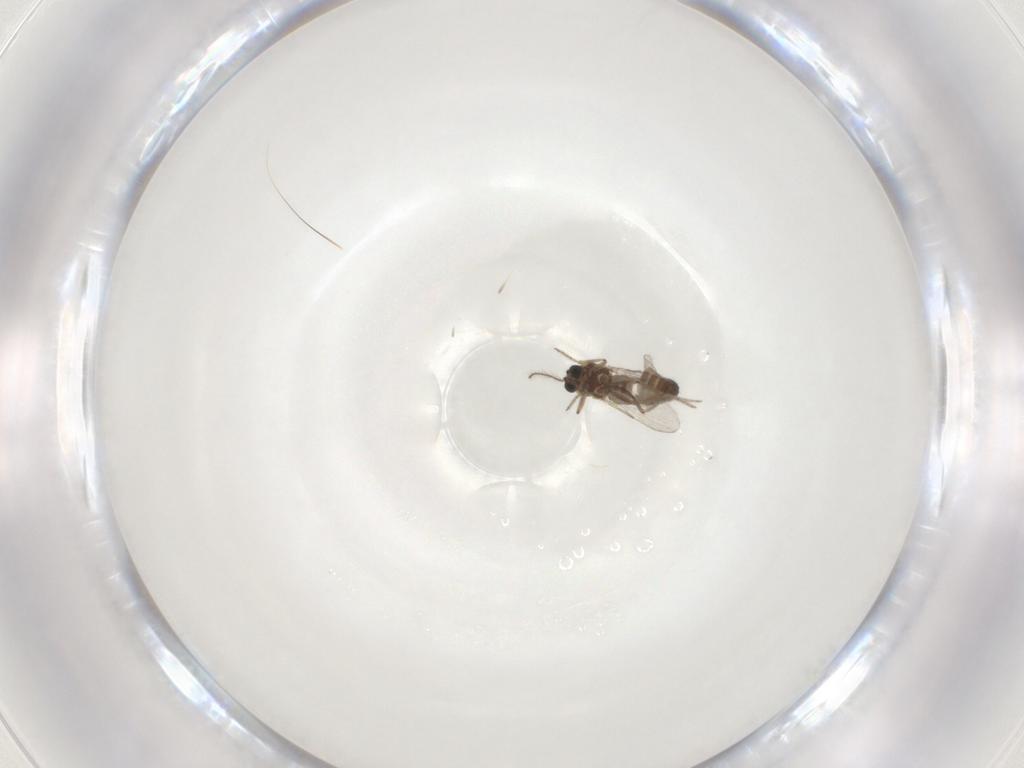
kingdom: Animalia
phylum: Arthropoda
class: Insecta
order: Diptera
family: Ceratopogonidae
